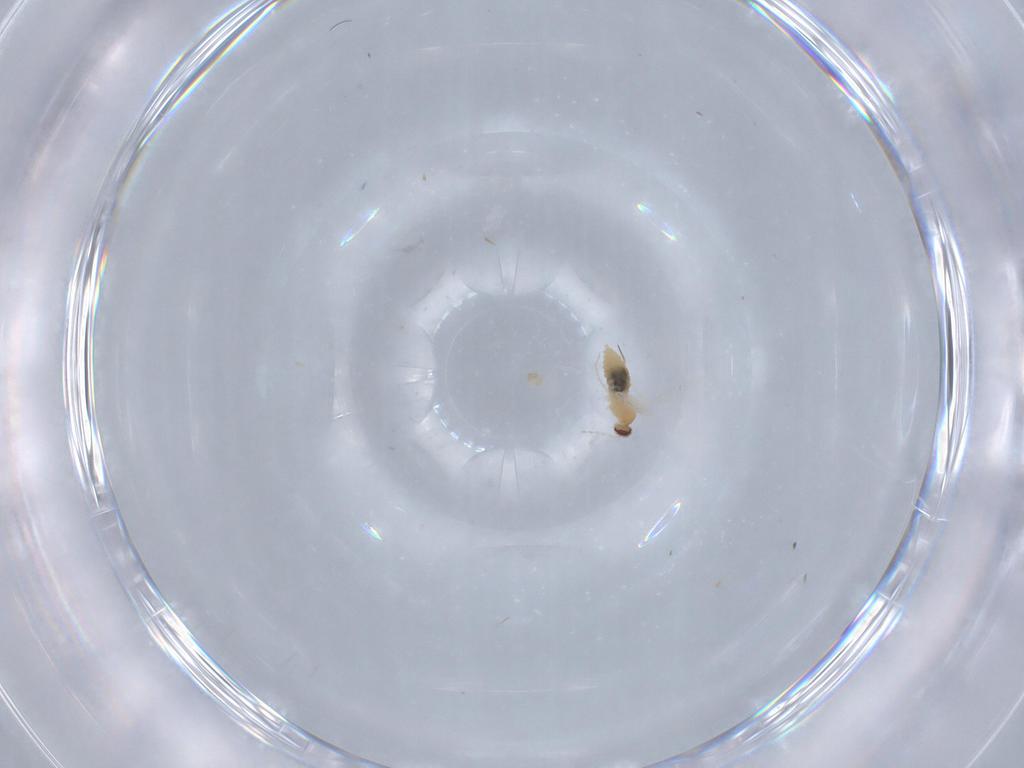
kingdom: Animalia
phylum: Arthropoda
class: Insecta
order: Diptera
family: Cecidomyiidae
